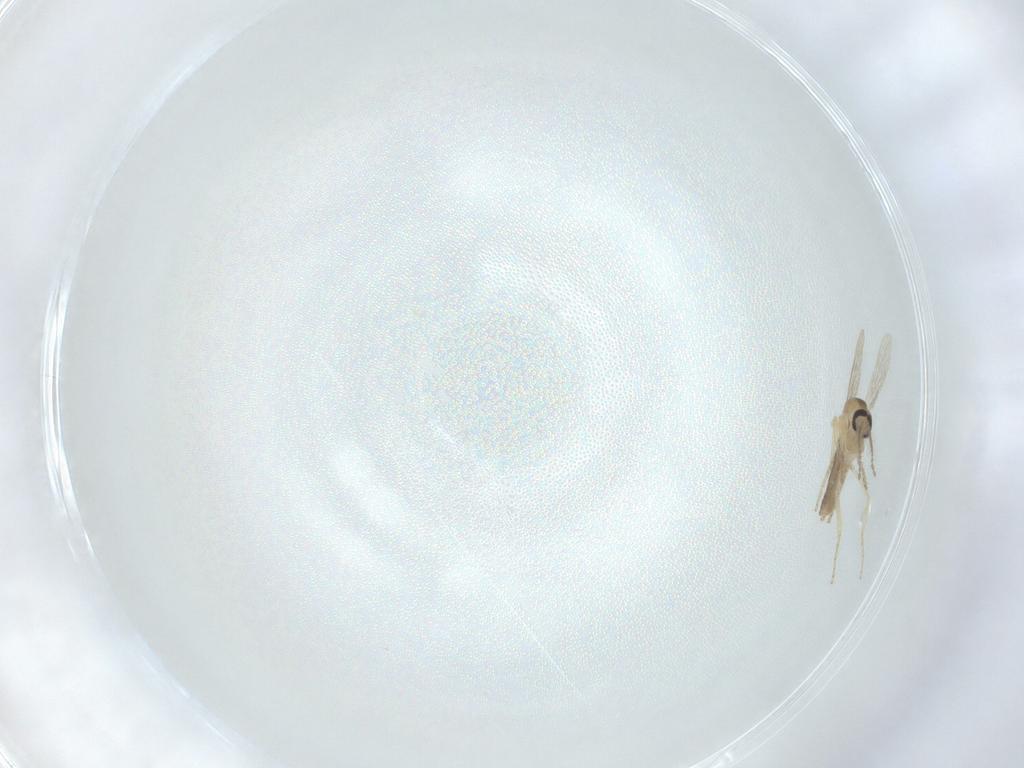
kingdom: Animalia
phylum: Arthropoda
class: Insecta
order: Diptera
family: Ceratopogonidae
